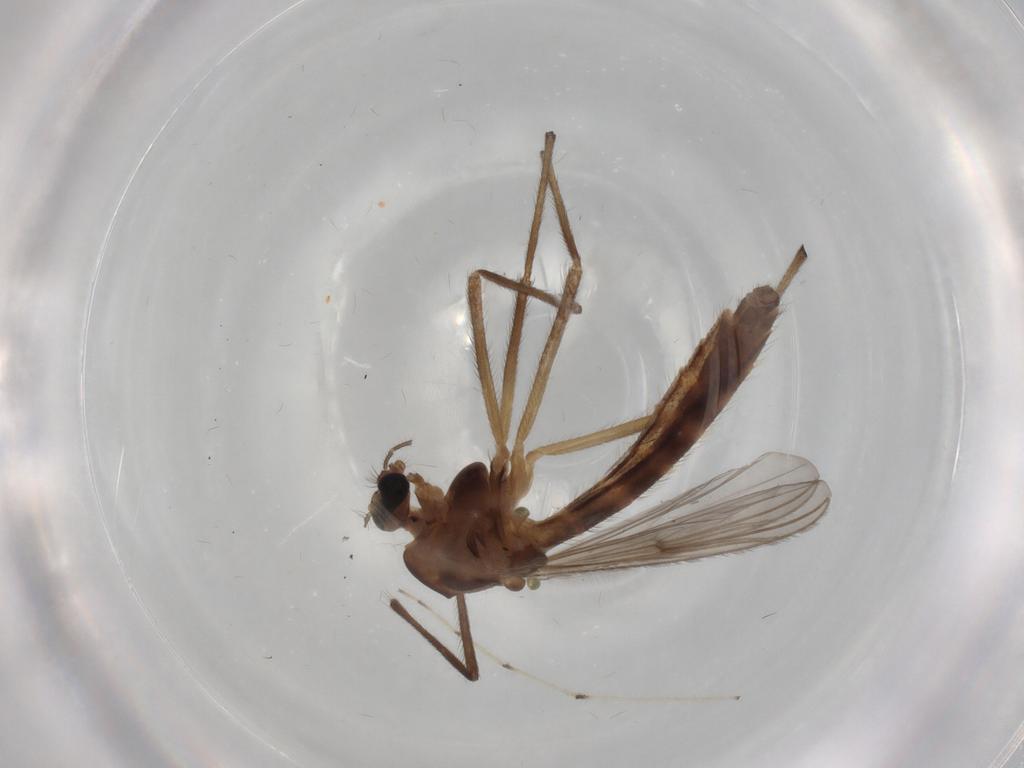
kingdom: Animalia
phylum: Arthropoda
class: Insecta
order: Diptera
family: Chironomidae
